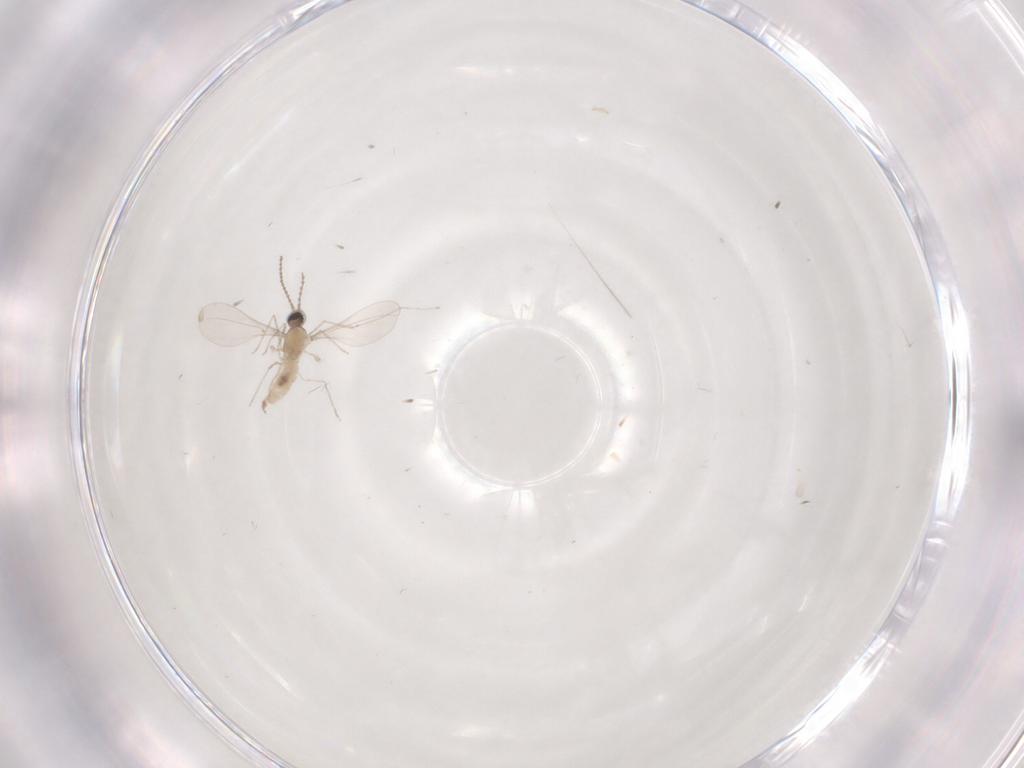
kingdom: Animalia
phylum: Arthropoda
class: Insecta
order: Diptera
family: Cecidomyiidae
